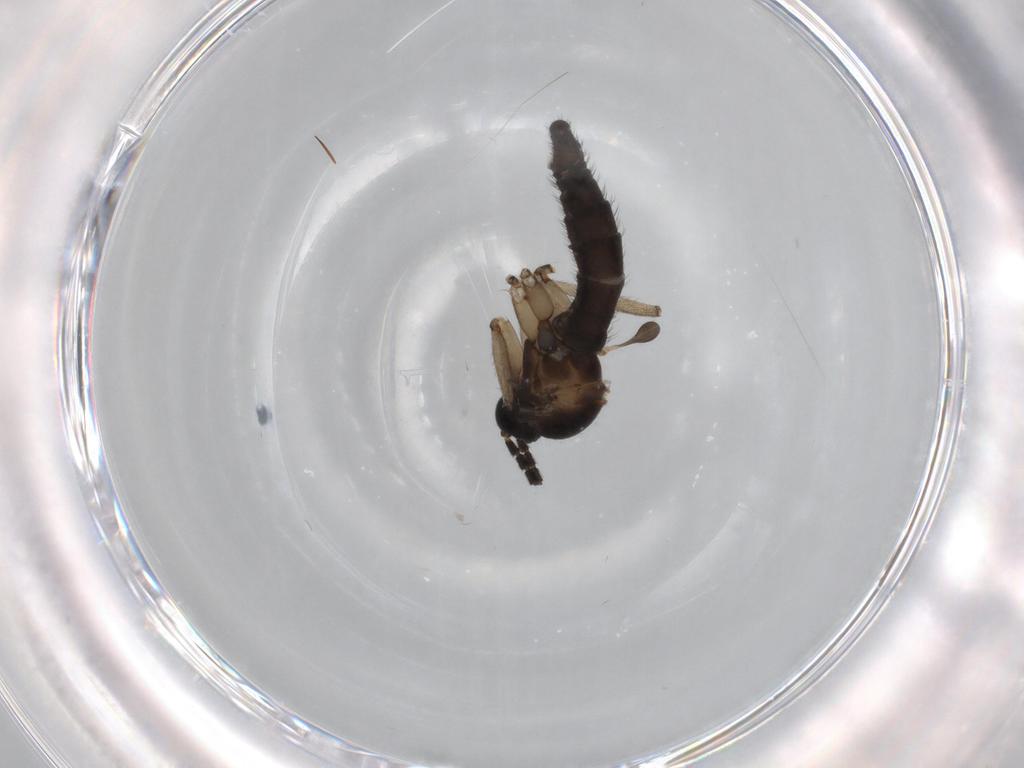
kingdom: Animalia
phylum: Arthropoda
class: Insecta
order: Diptera
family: Sciaridae
